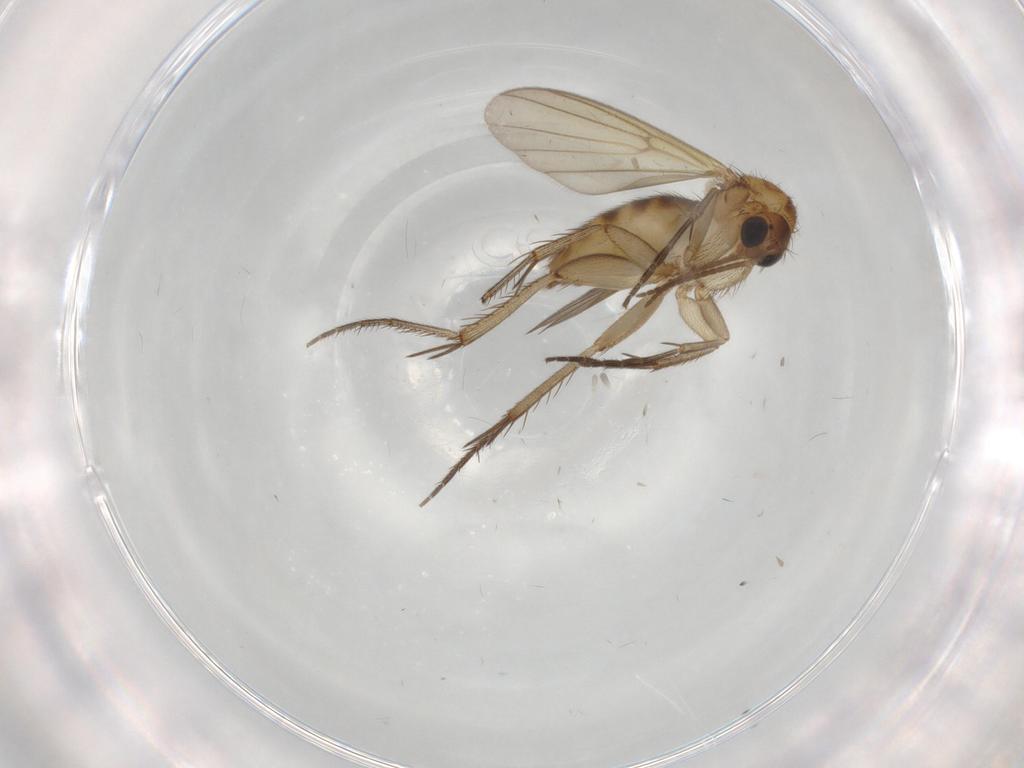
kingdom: Animalia
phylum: Arthropoda
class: Insecta
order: Diptera
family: Mycetophilidae
